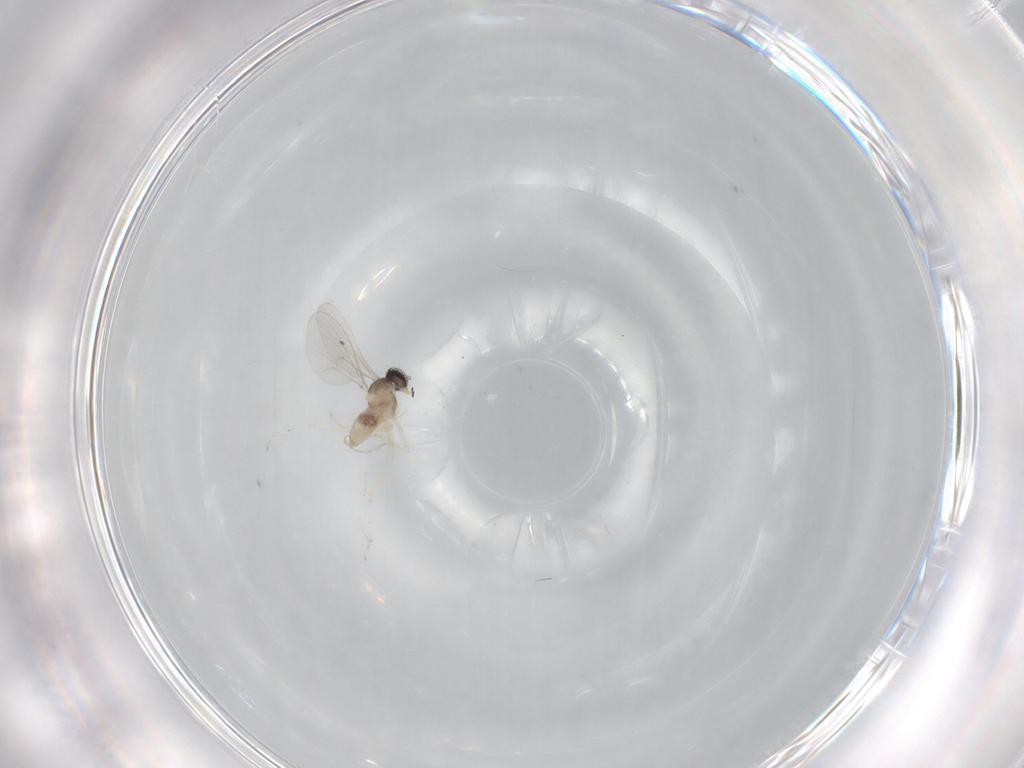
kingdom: Animalia
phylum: Arthropoda
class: Insecta
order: Diptera
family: Cecidomyiidae
